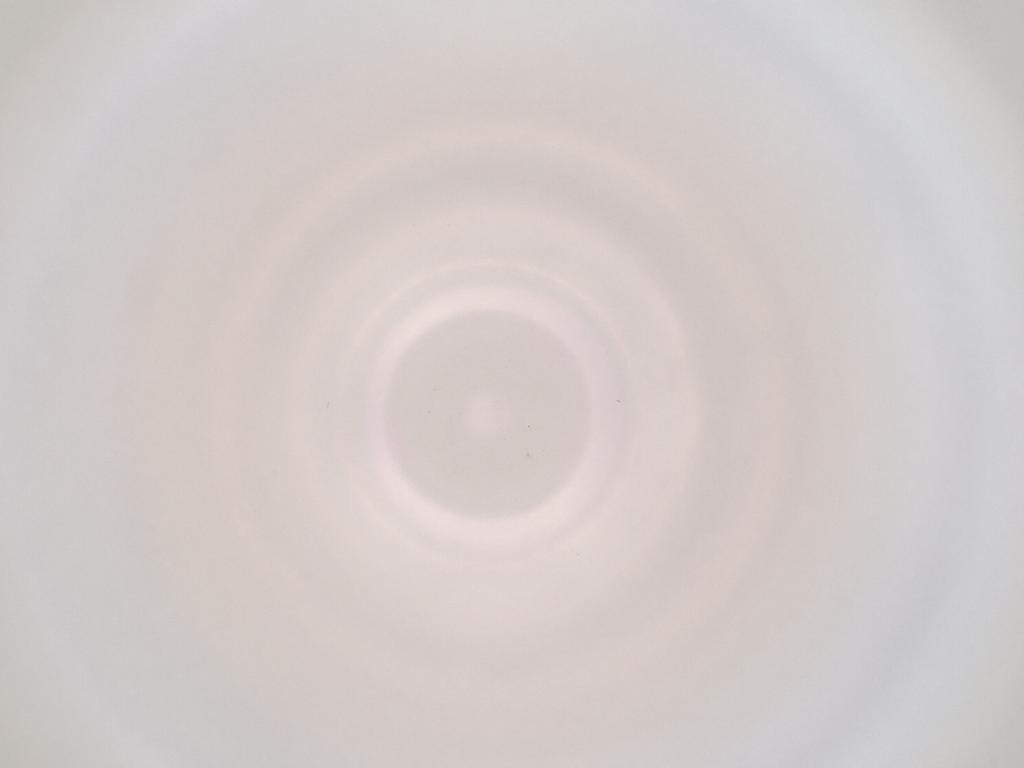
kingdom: Animalia
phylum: Arthropoda
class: Insecta
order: Diptera
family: Cecidomyiidae
